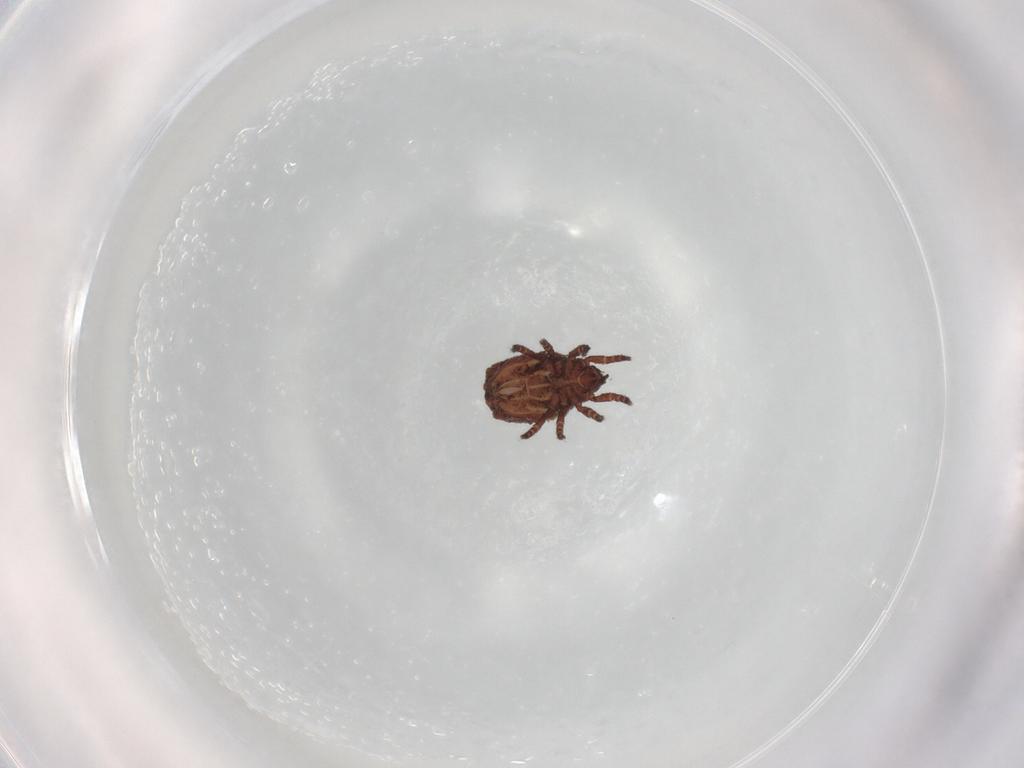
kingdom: Animalia
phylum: Arthropoda
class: Arachnida
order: Sarcoptiformes
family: Crotoniidae
